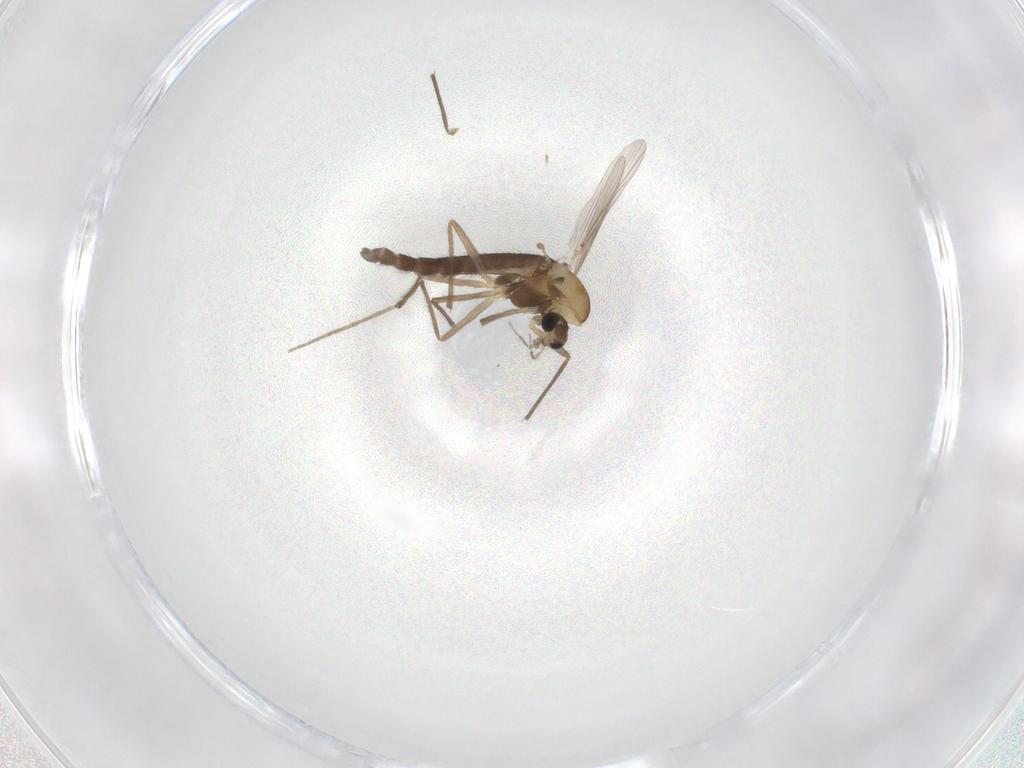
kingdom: Animalia
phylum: Arthropoda
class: Insecta
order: Diptera
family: Chironomidae
